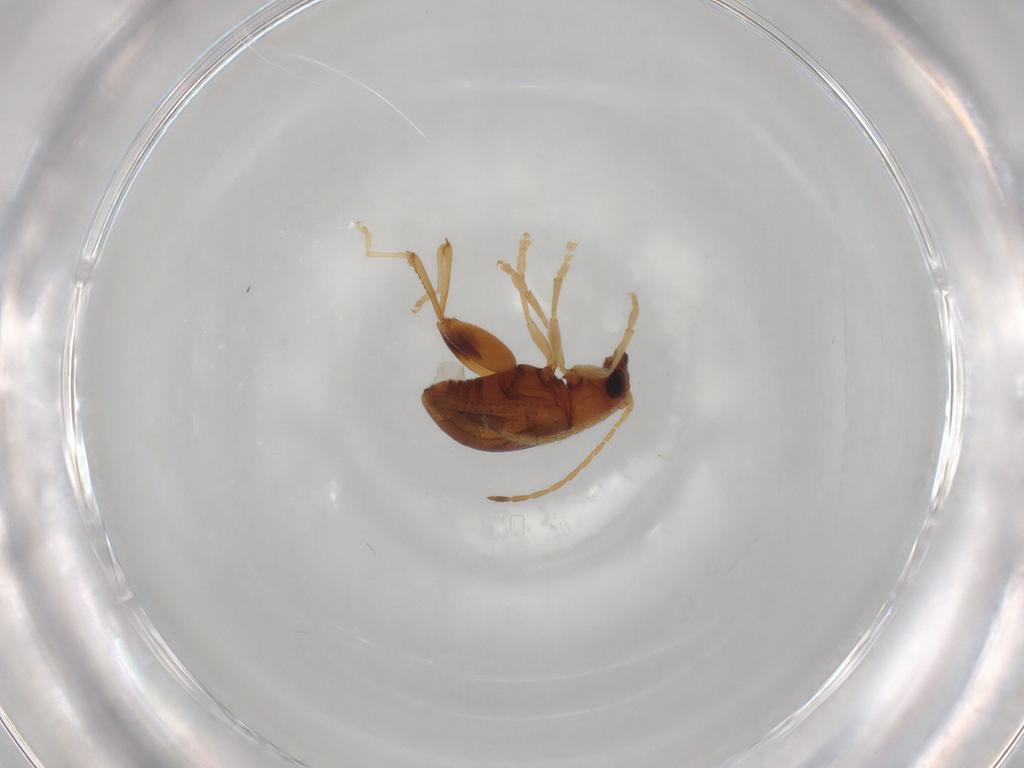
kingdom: Animalia
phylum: Arthropoda
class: Insecta
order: Coleoptera
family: Chrysomelidae
